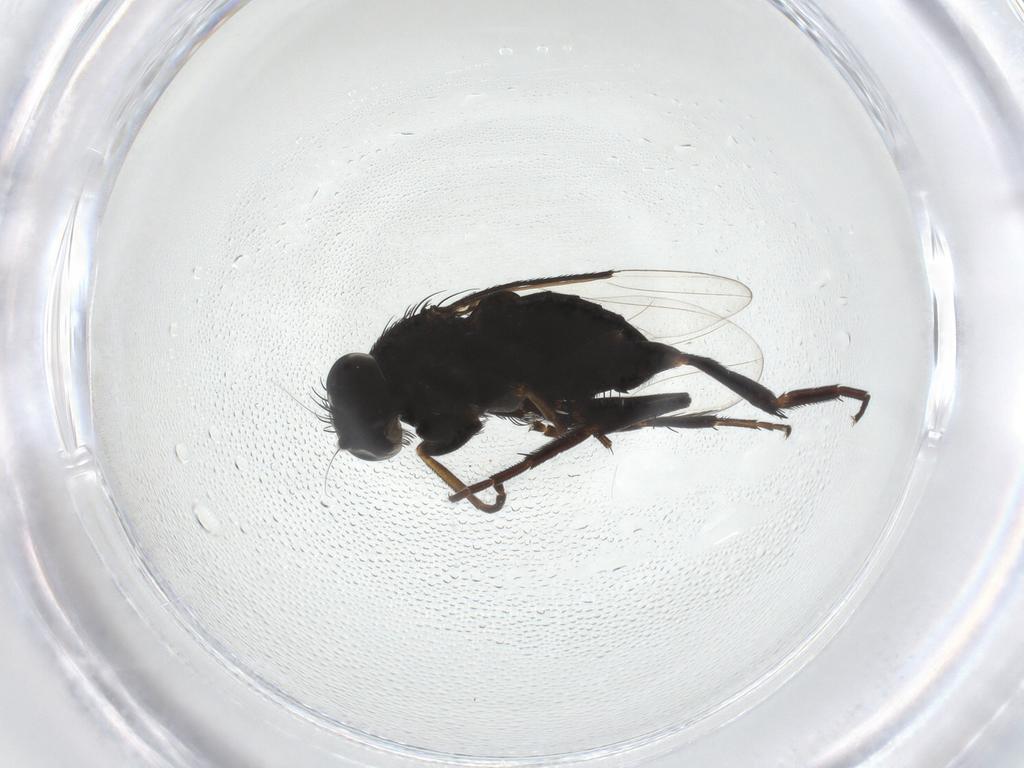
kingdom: Animalia
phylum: Arthropoda
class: Insecta
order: Diptera
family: Phoridae
